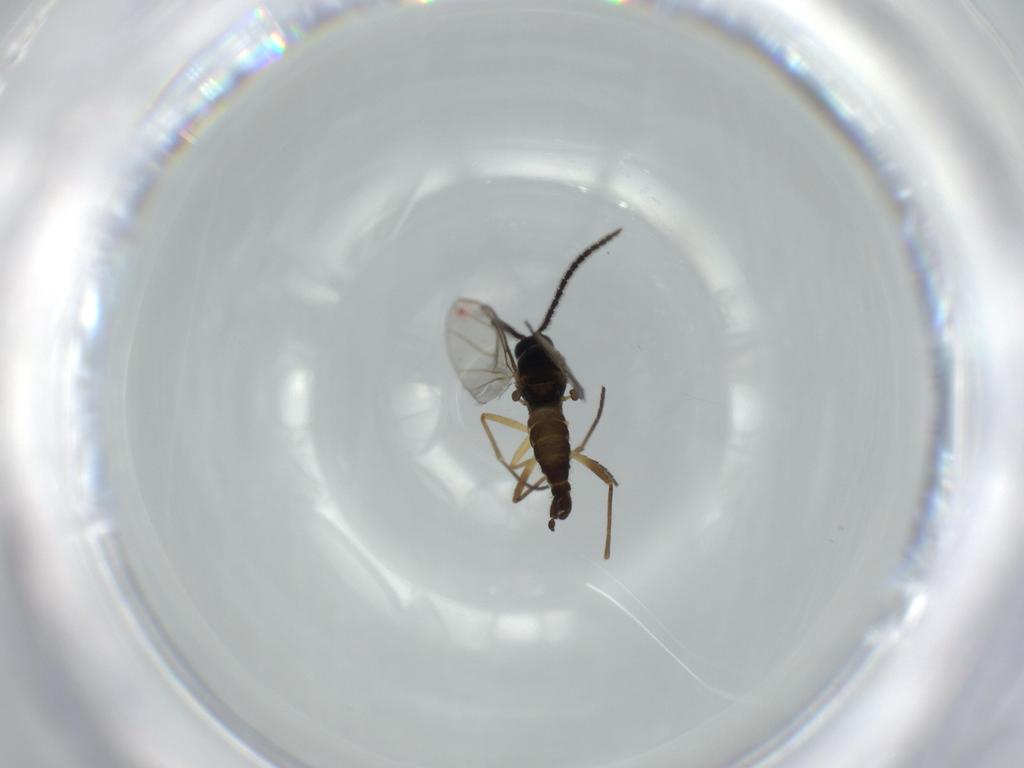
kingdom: Animalia
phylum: Arthropoda
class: Insecta
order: Diptera
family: Sciaridae
